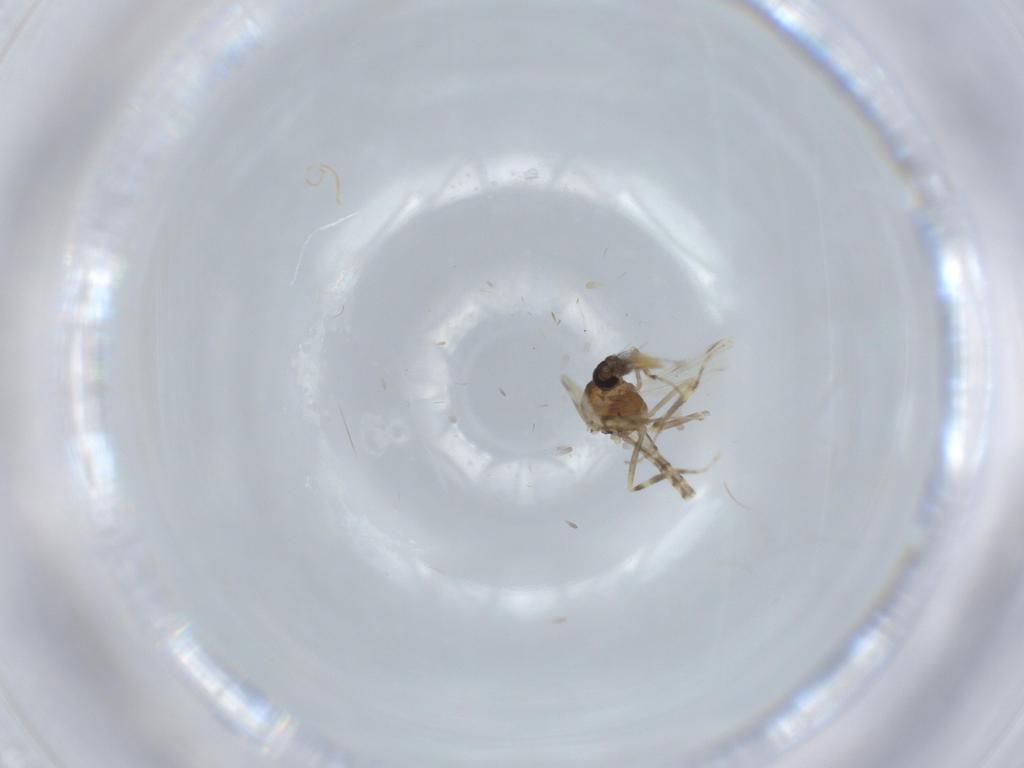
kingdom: Animalia
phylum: Arthropoda
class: Insecta
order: Diptera
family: Ceratopogonidae
